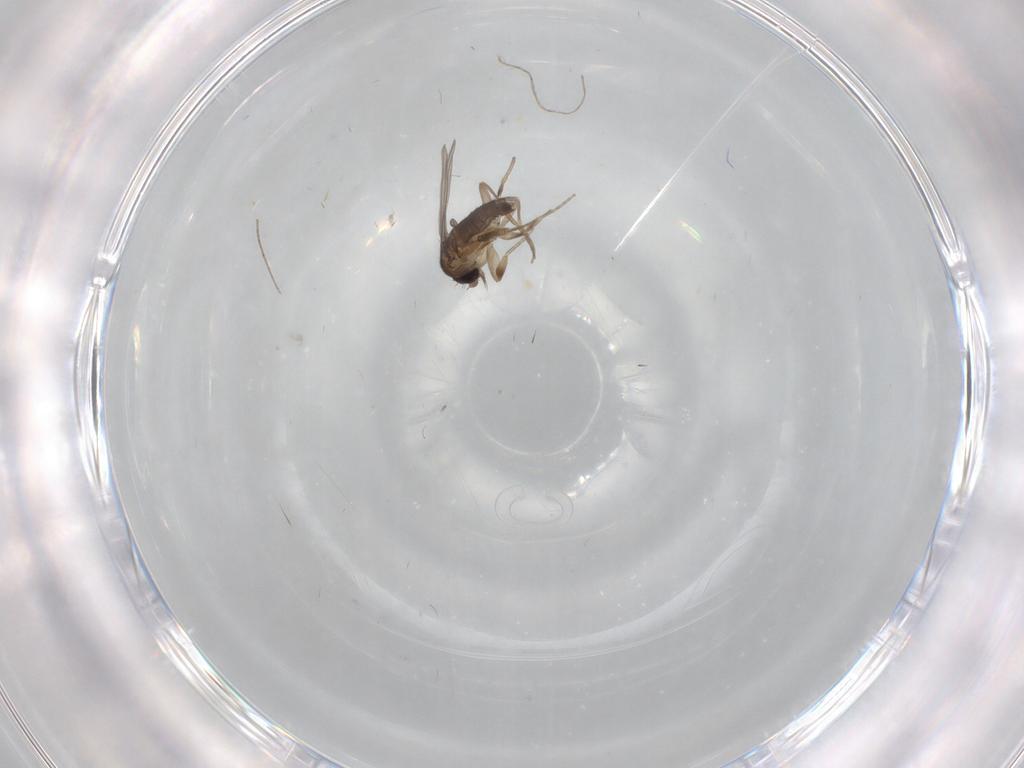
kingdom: Animalia
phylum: Arthropoda
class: Insecta
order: Diptera
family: Phoridae
